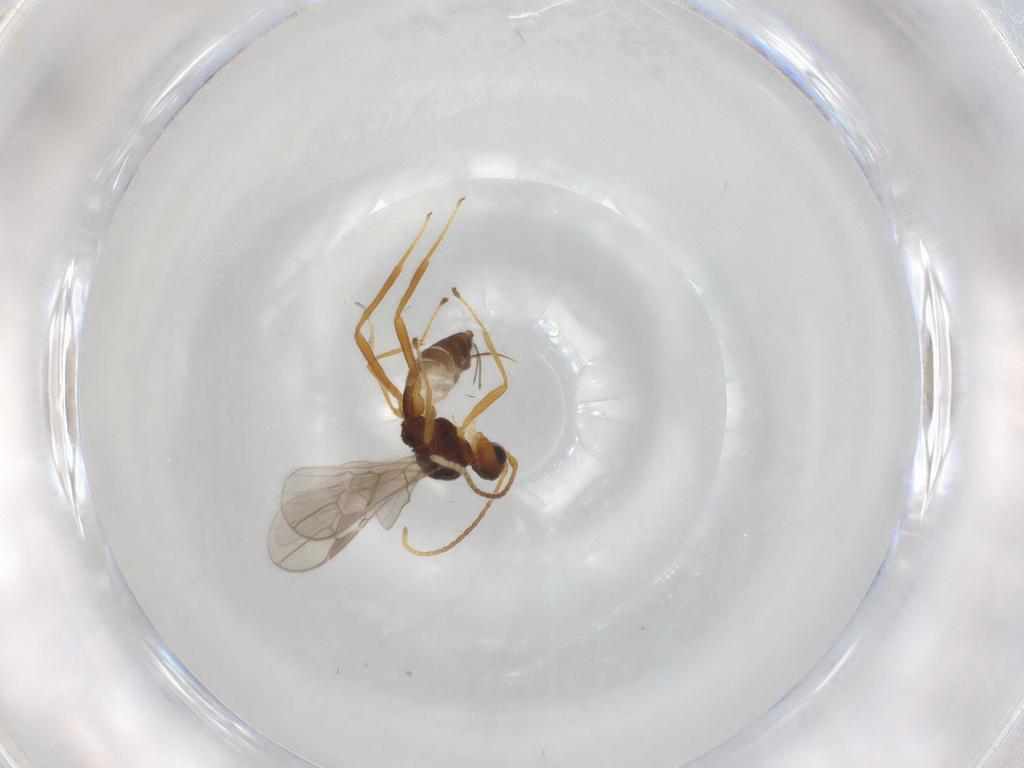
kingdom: Animalia
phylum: Arthropoda
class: Insecta
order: Hymenoptera
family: Braconidae
